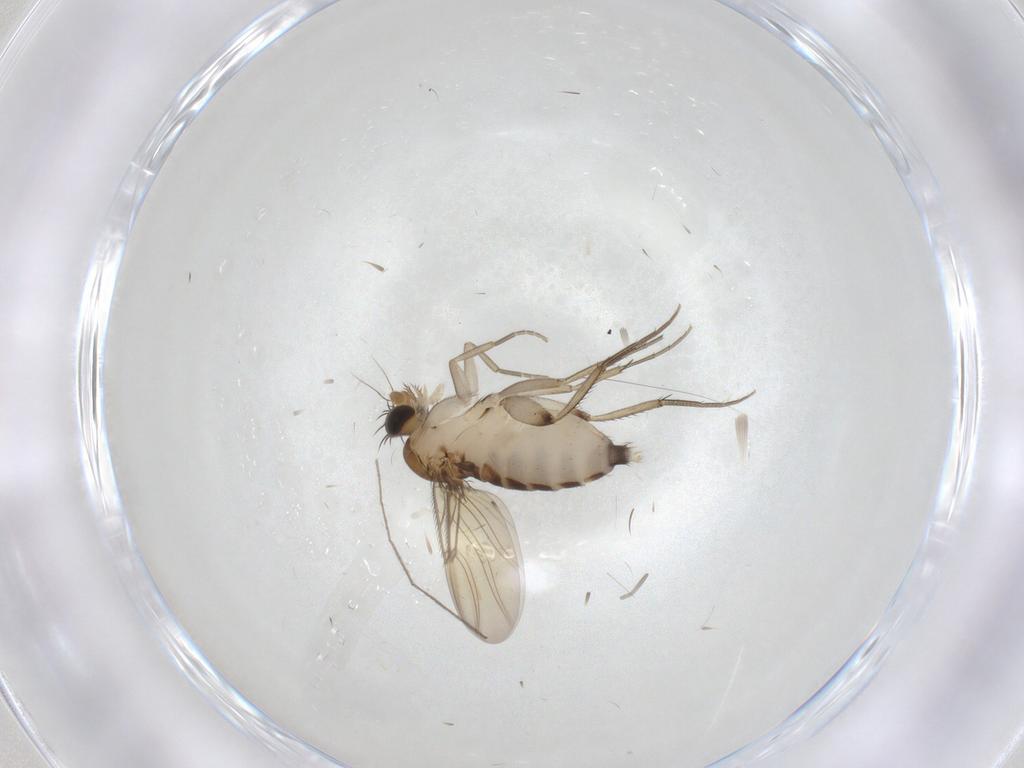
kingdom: Animalia
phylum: Arthropoda
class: Insecta
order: Diptera
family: Phoridae
